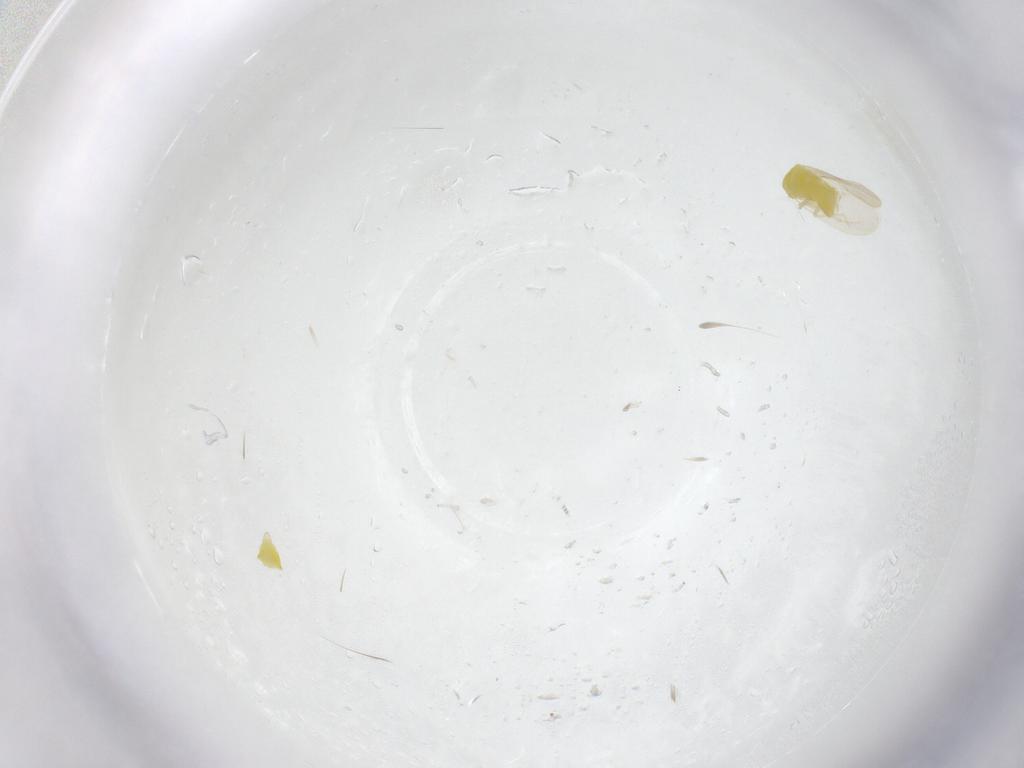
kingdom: Animalia
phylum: Arthropoda
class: Insecta
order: Hemiptera
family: Aleyrodidae
